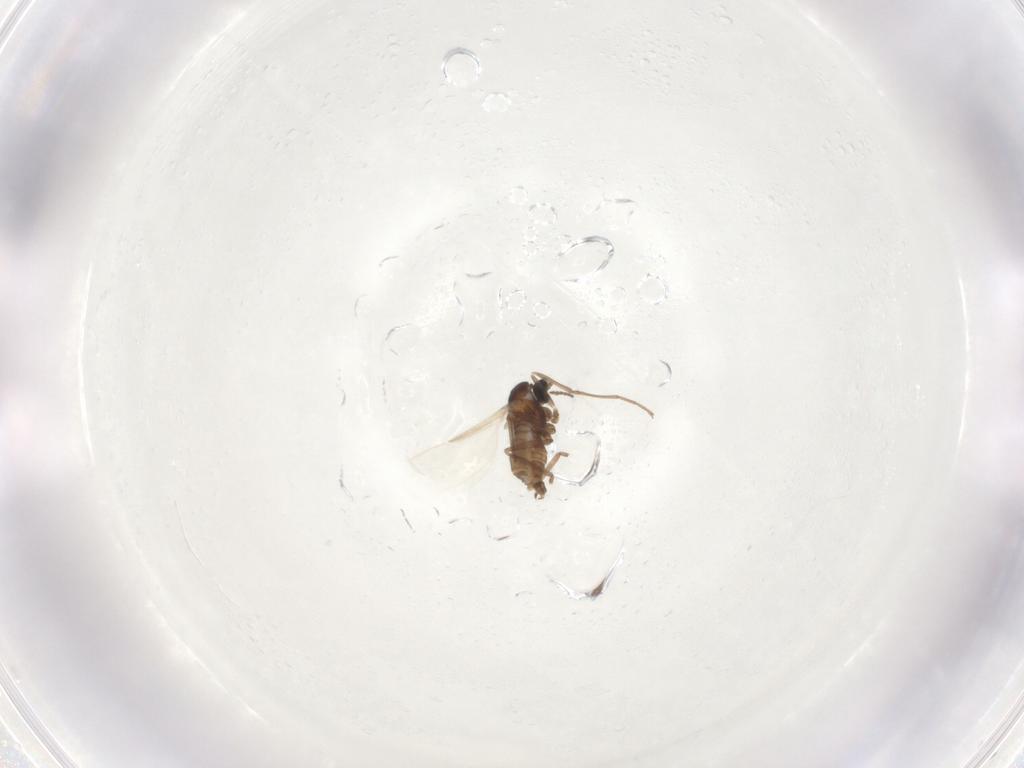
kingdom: Animalia
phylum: Arthropoda
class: Insecta
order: Diptera
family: Cecidomyiidae
